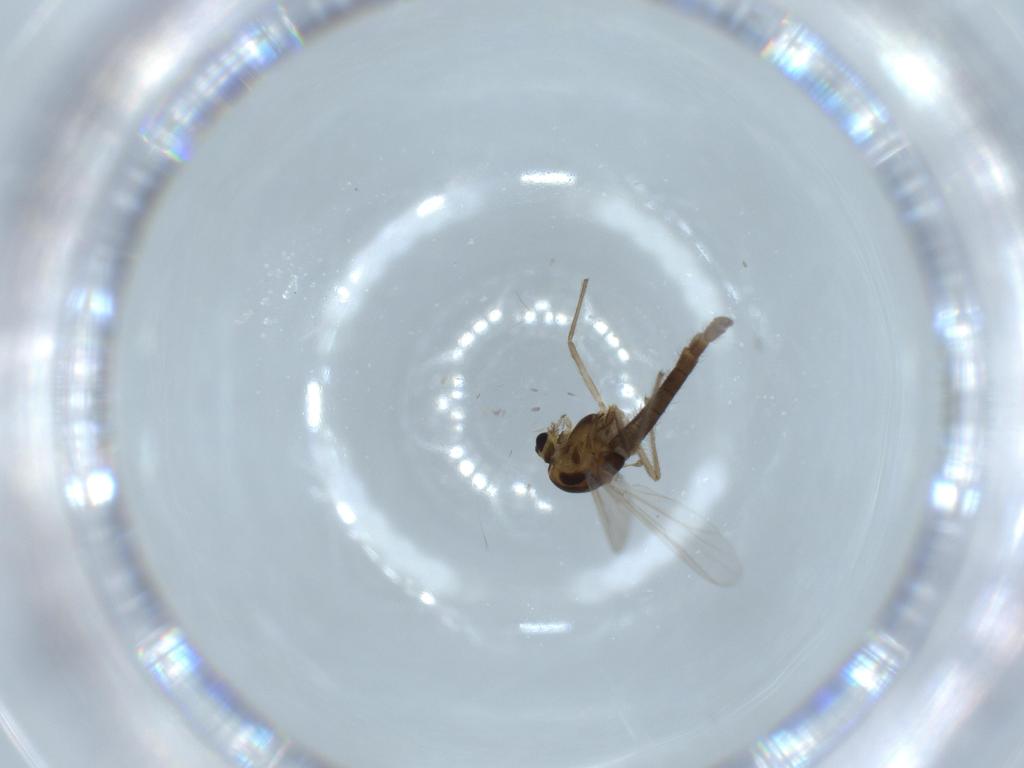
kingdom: Animalia
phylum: Arthropoda
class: Insecta
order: Diptera
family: Chironomidae
